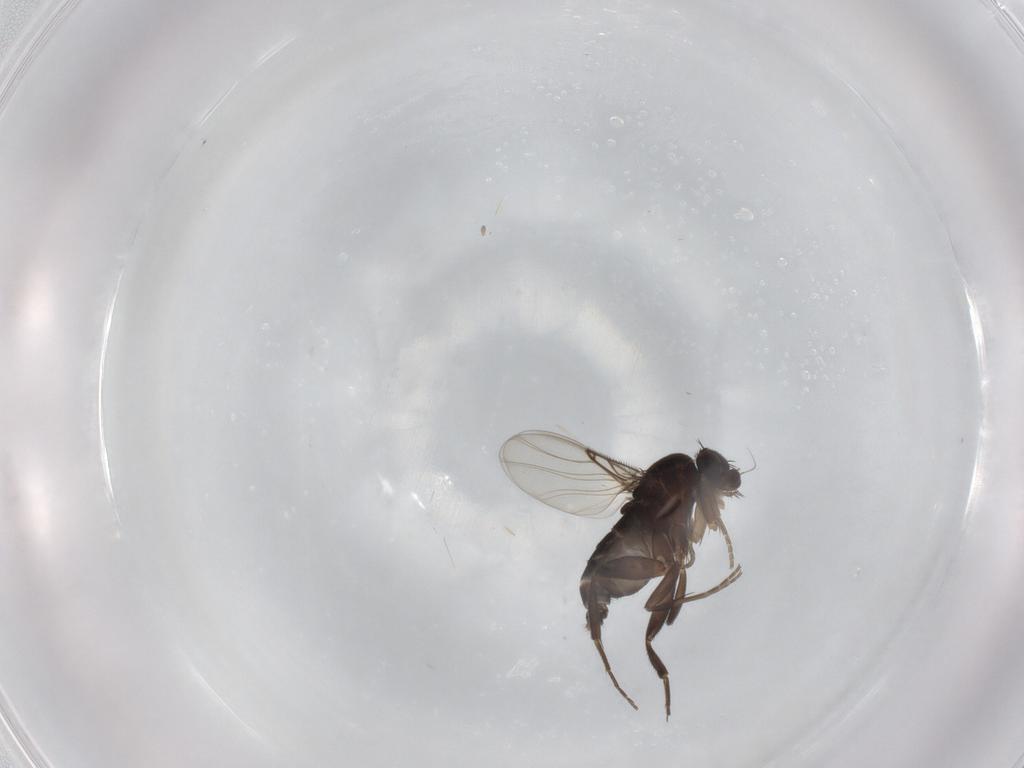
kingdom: Animalia
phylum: Arthropoda
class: Insecta
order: Diptera
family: Phoridae
